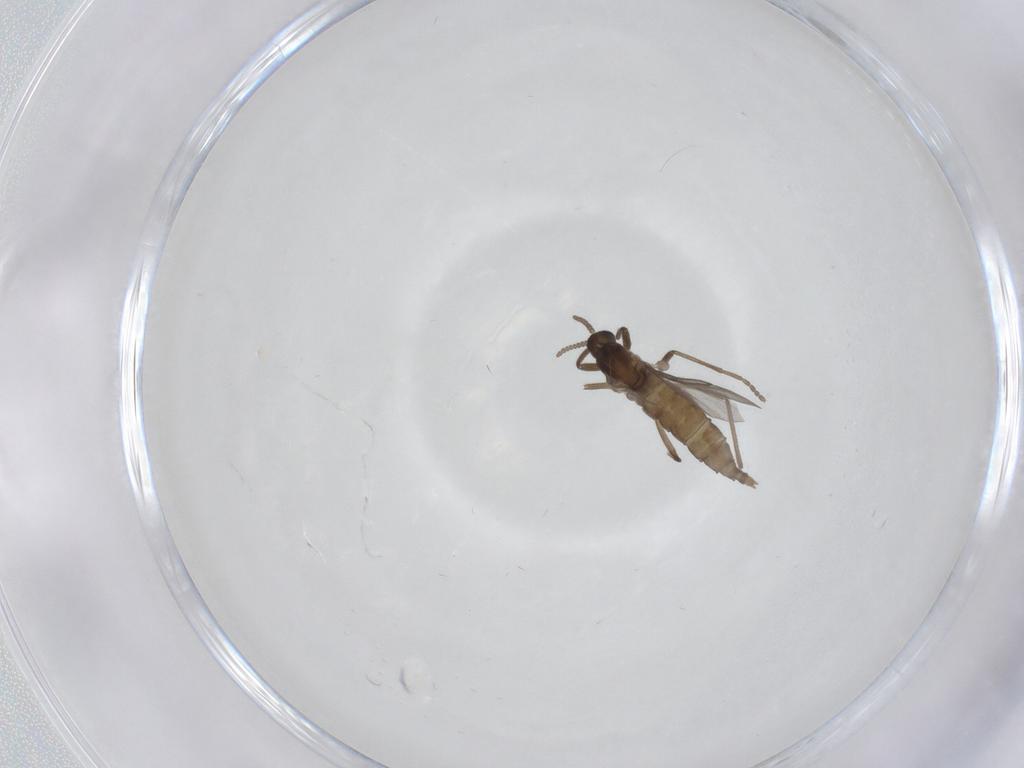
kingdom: Animalia
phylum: Arthropoda
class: Insecta
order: Diptera
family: Cecidomyiidae
